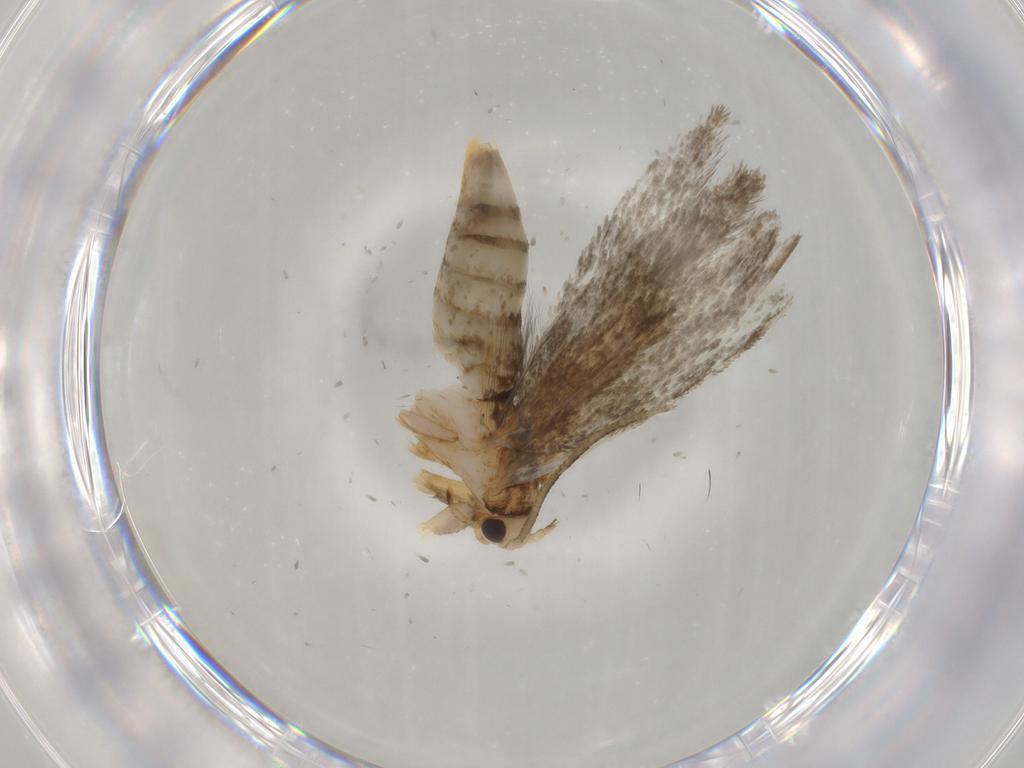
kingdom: Animalia
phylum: Arthropoda
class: Insecta
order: Lepidoptera
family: Tineidae
